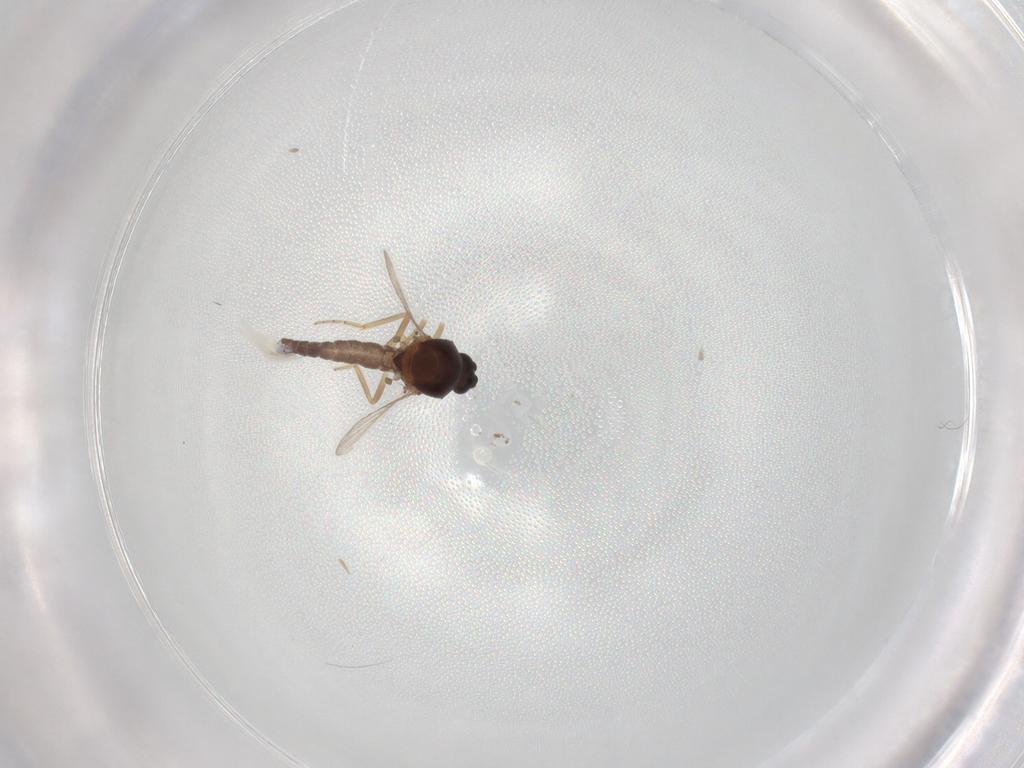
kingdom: Animalia
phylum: Arthropoda
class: Insecta
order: Diptera
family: Ceratopogonidae
